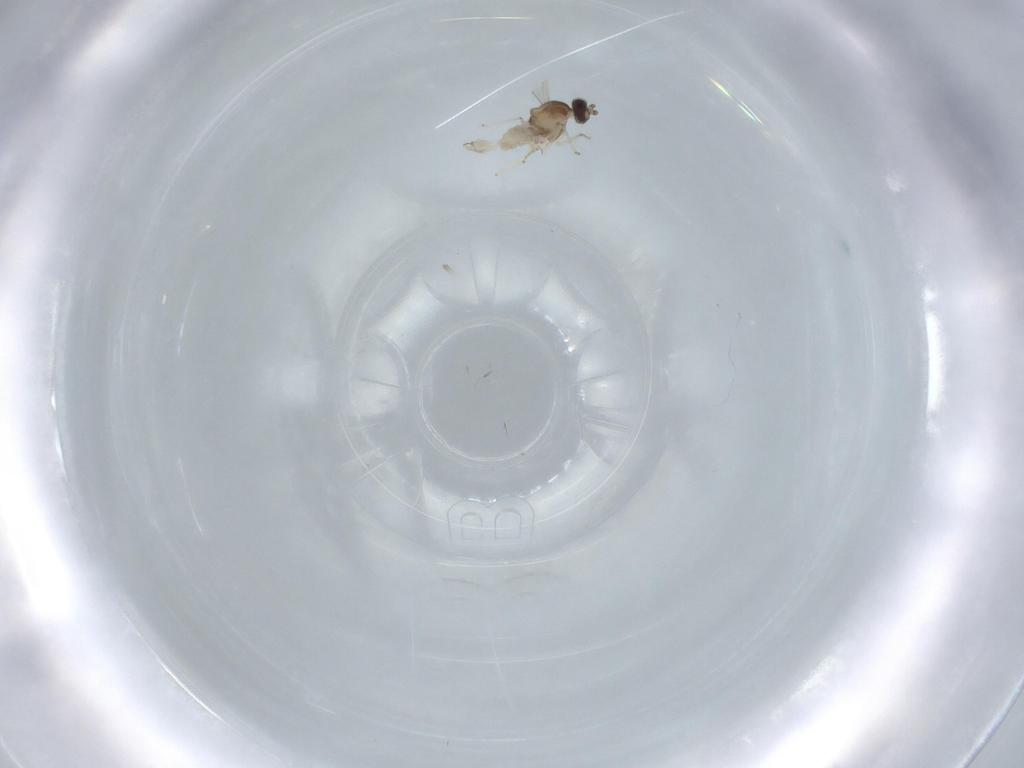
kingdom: Animalia
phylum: Arthropoda
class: Insecta
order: Diptera
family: Cecidomyiidae
